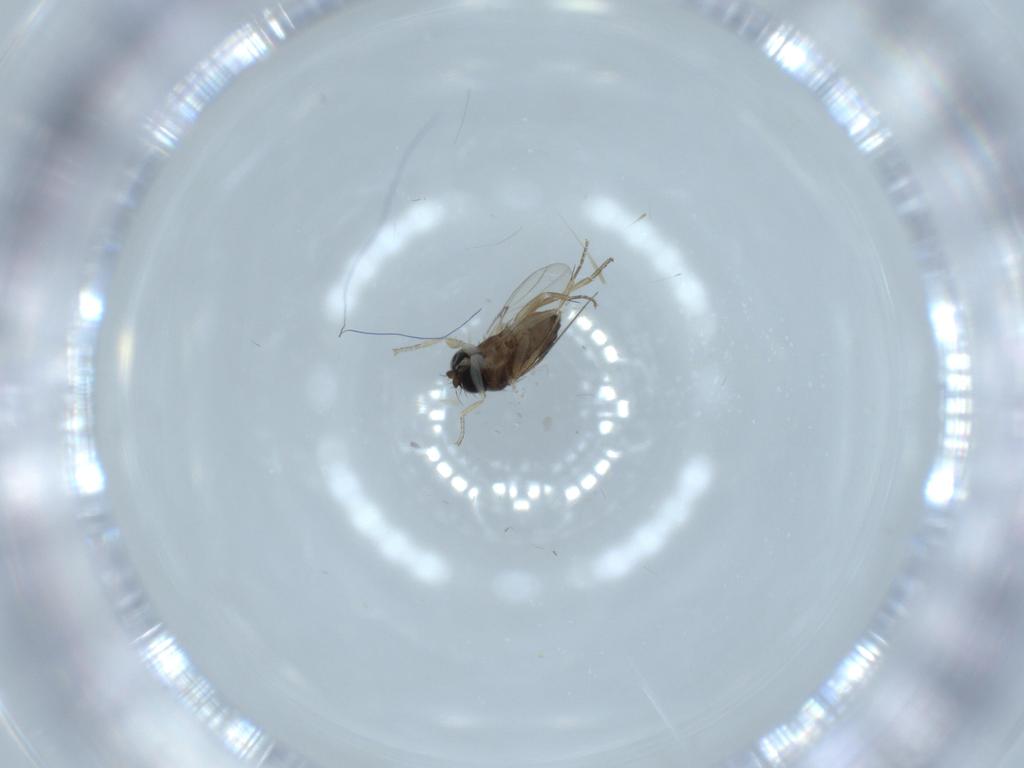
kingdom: Animalia
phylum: Arthropoda
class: Insecta
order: Diptera
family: Phoridae
